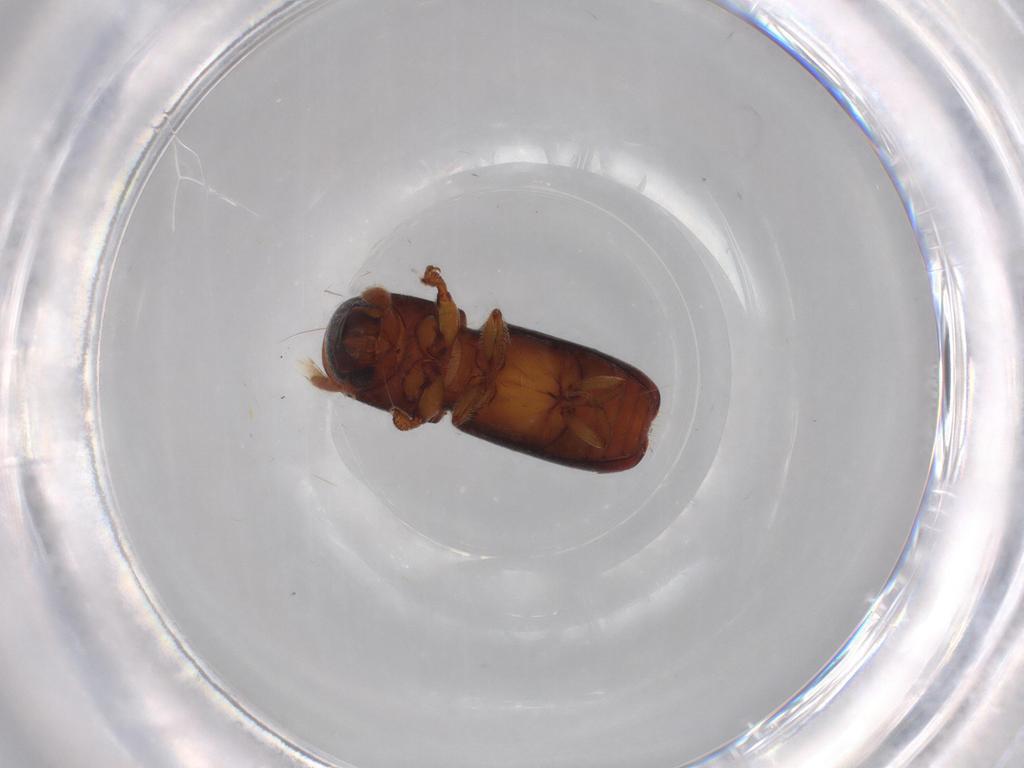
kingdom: Animalia
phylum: Arthropoda
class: Insecta
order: Coleoptera
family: Curculionidae
